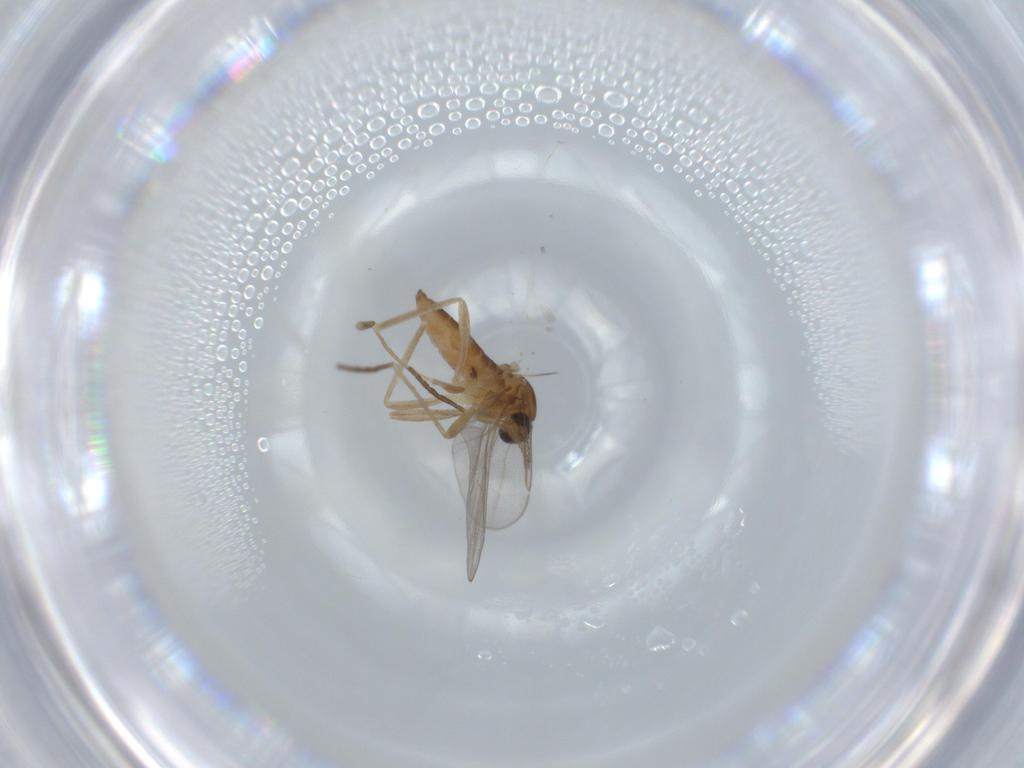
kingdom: Animalia
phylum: Arthropoda
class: Insecta
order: Diptera
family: Cecidomyiidae
